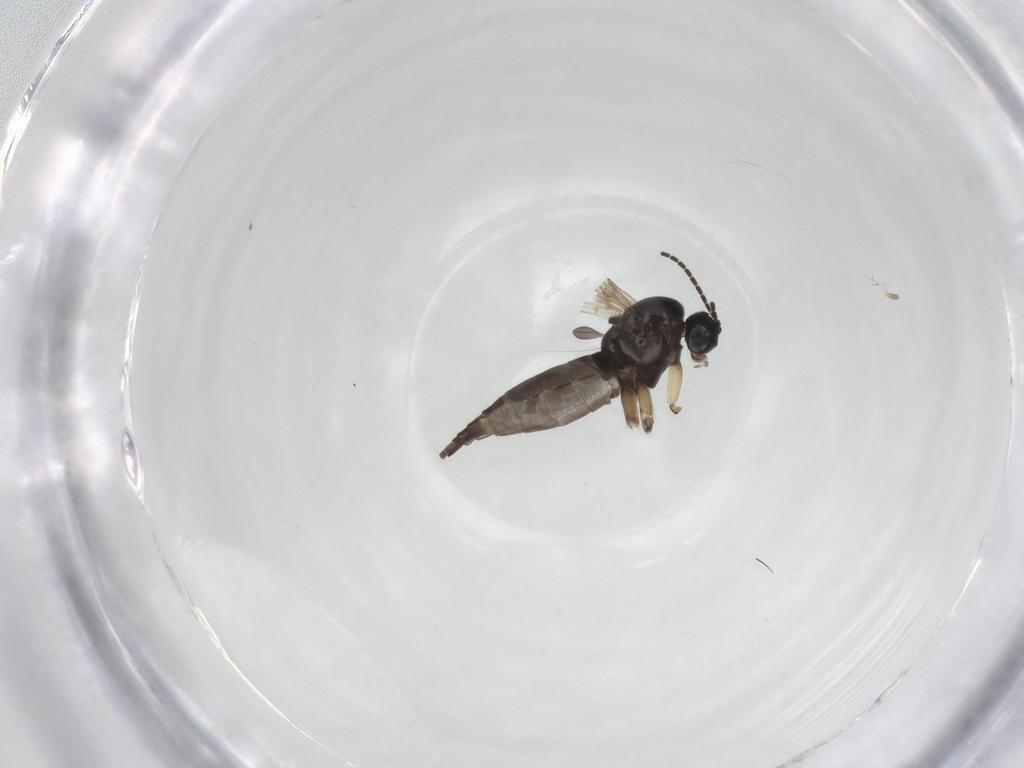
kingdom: Animalia
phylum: Arthropoda
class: Insecta
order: Diptera
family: Sciaridae
